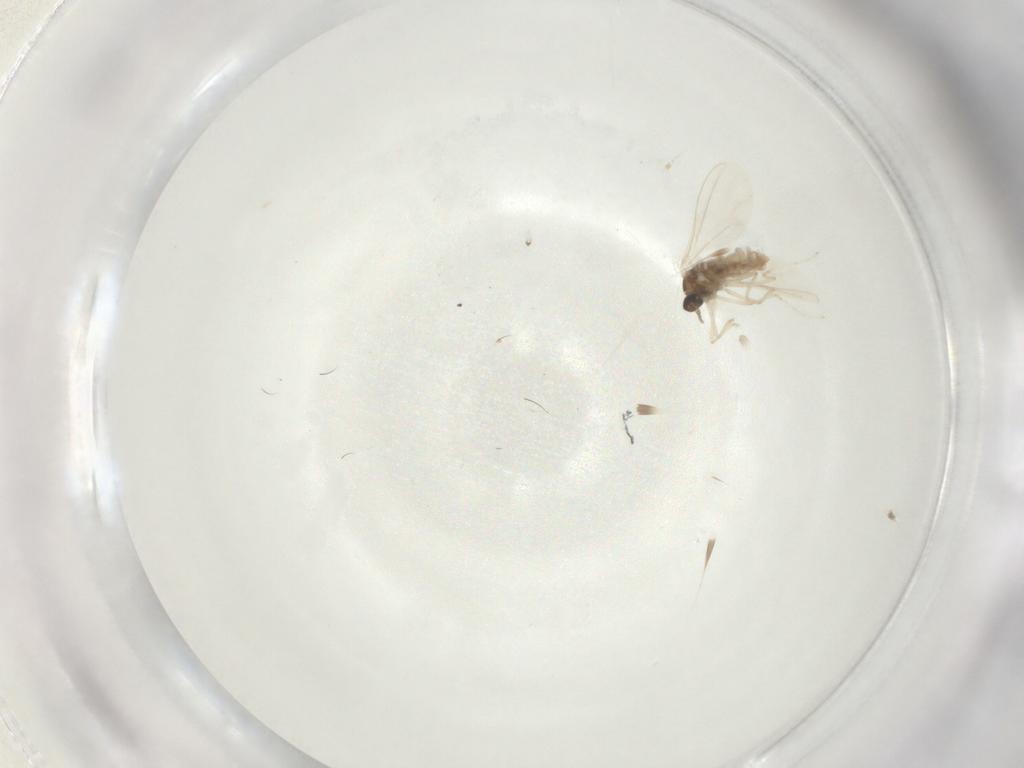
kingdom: Animalia
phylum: Arthropoda
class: Insecta
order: Diptera
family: Cecidomyiidae
